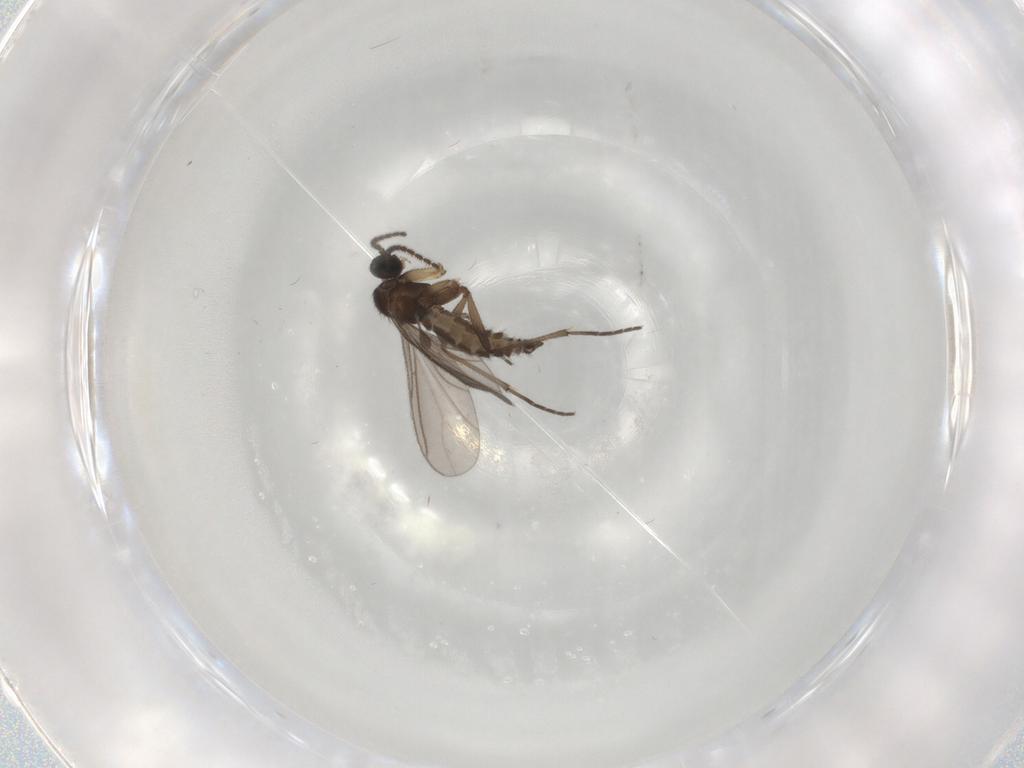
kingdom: Animalia
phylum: Arthropoda
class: Insecta
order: Diptera
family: Sciaridae
